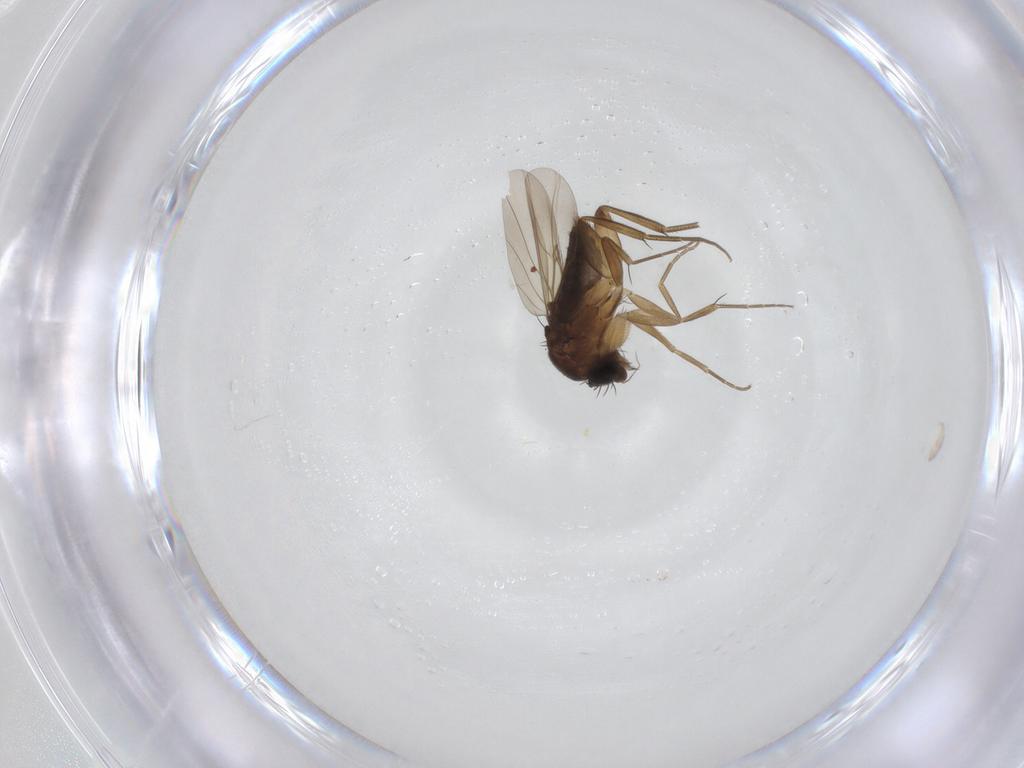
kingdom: Animalia
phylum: Arthropoda
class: Insecta
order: Diptera
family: Phoridae
